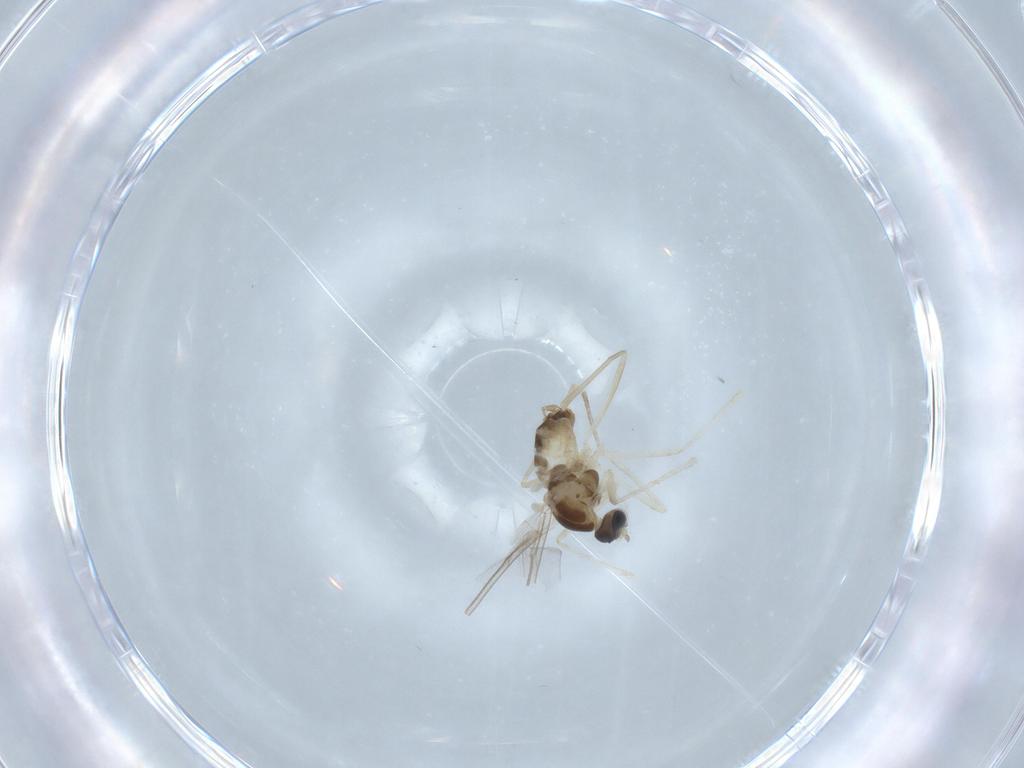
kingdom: Animalia
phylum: Arthropoda
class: Insecta
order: Diptera
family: Cecidomyiidae
